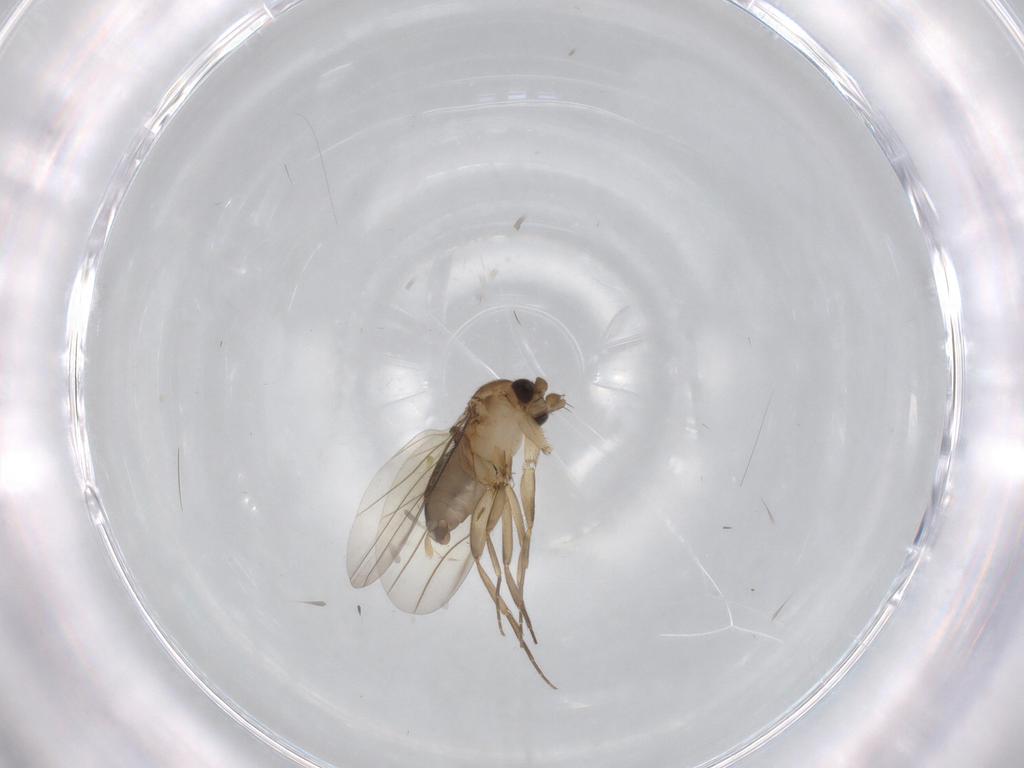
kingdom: Animalia
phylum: Arthropoda
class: Insecta
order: Diptera
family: Phoridae
